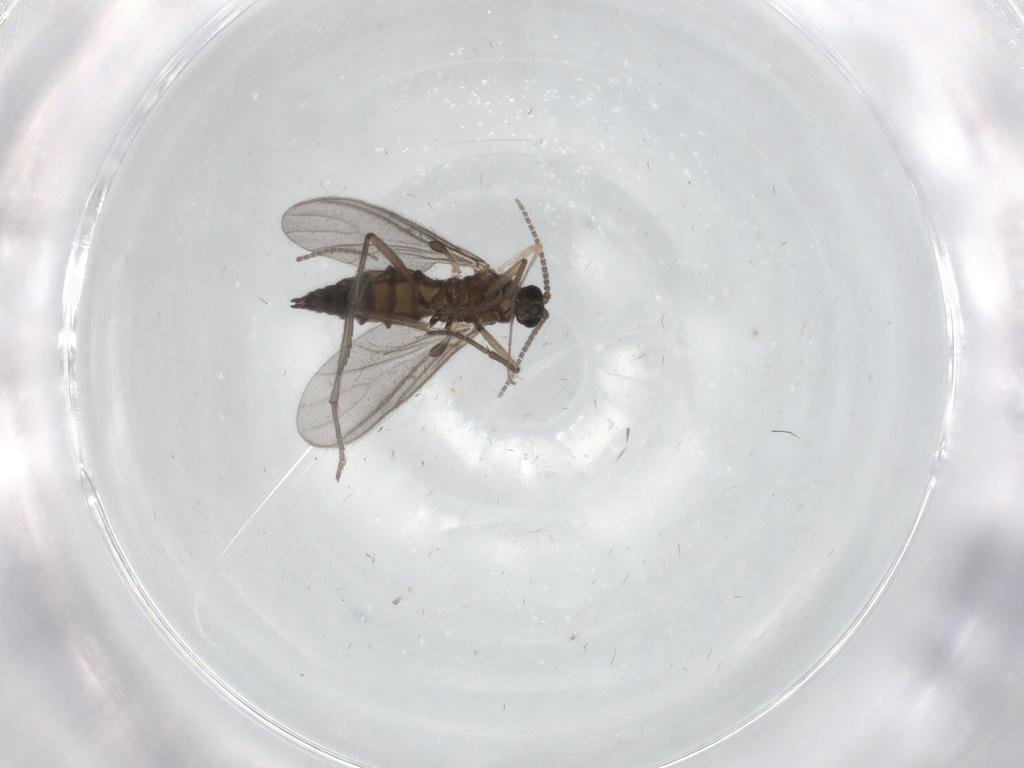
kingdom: Animalia
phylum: Arthropoda
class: Insecta
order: Diptera
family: Sciaridae
